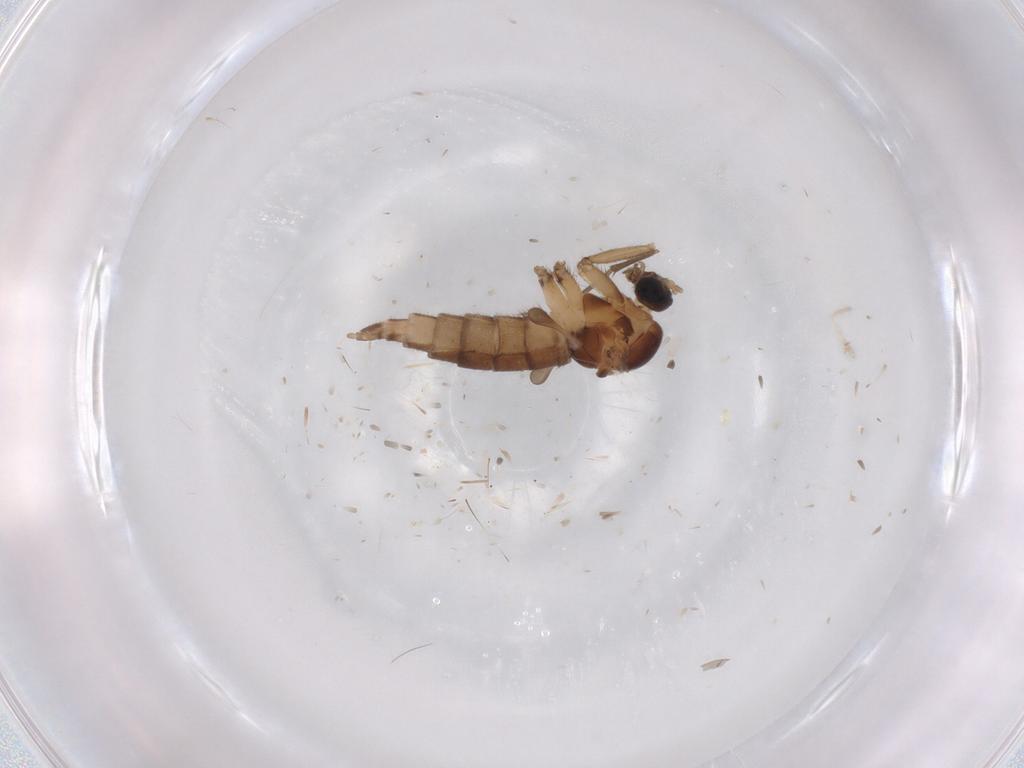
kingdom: Animalia
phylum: Arthropoda
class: Insecta
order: Diptera
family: Sciaridae
